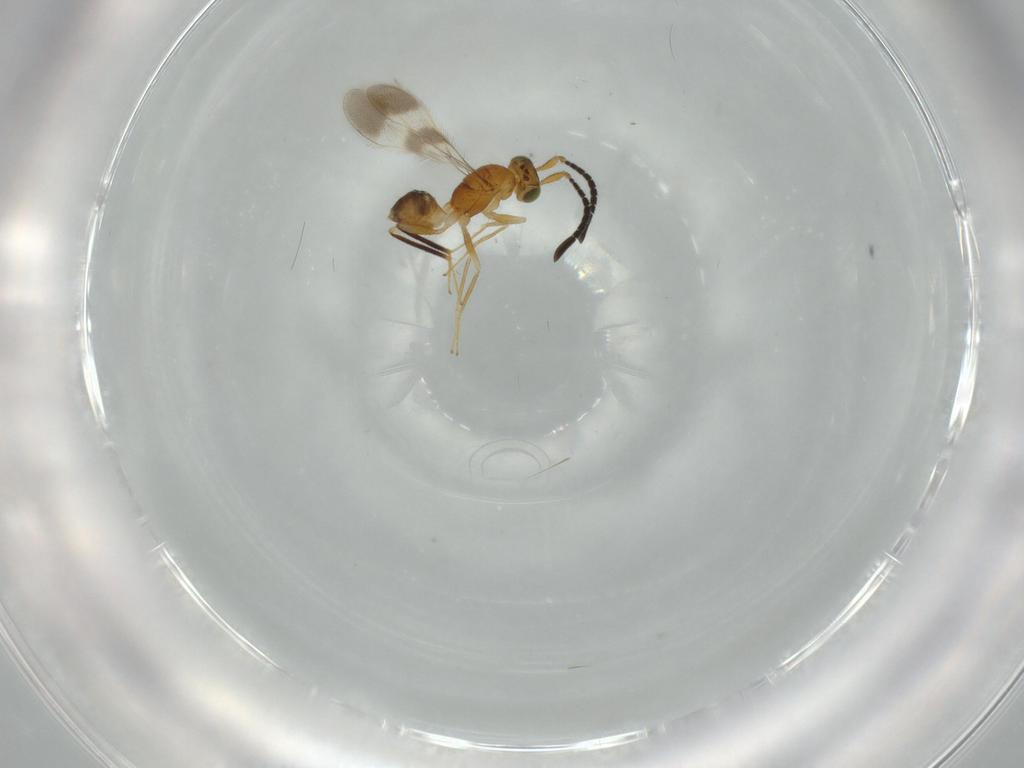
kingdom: Animalia
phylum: Arthropoda
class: Insecta
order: Hymenoptera
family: Mymaridae
